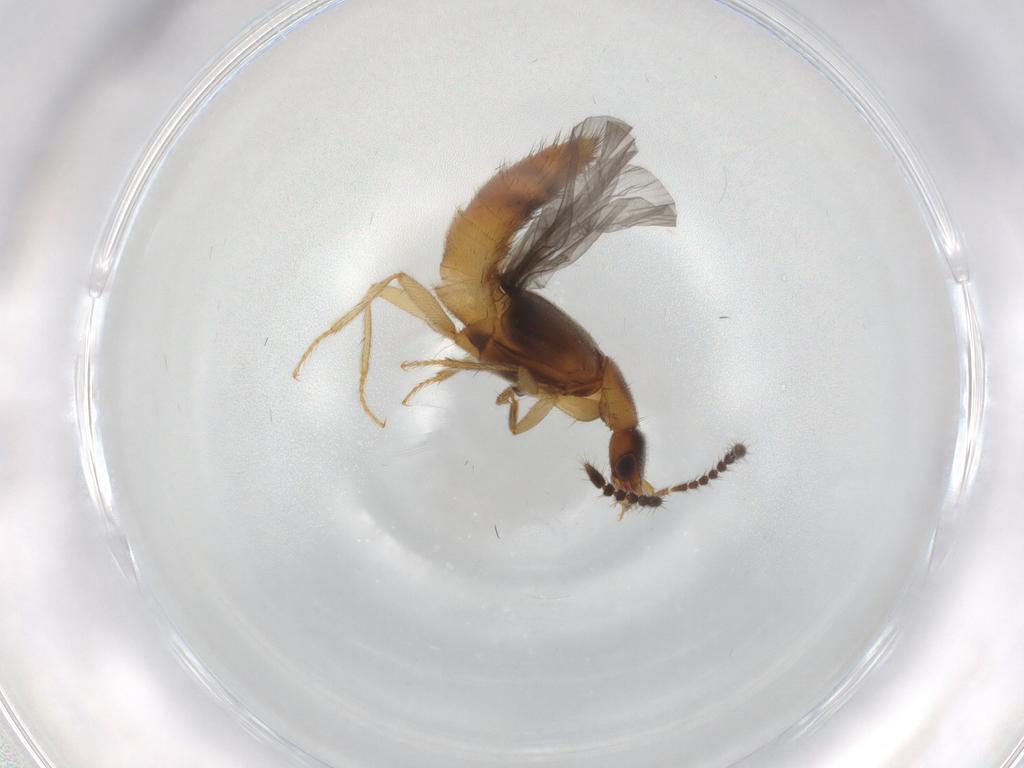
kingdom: Animalia
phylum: Arthropoda
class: Insecta
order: Coleoptera
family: Staphylinidae
